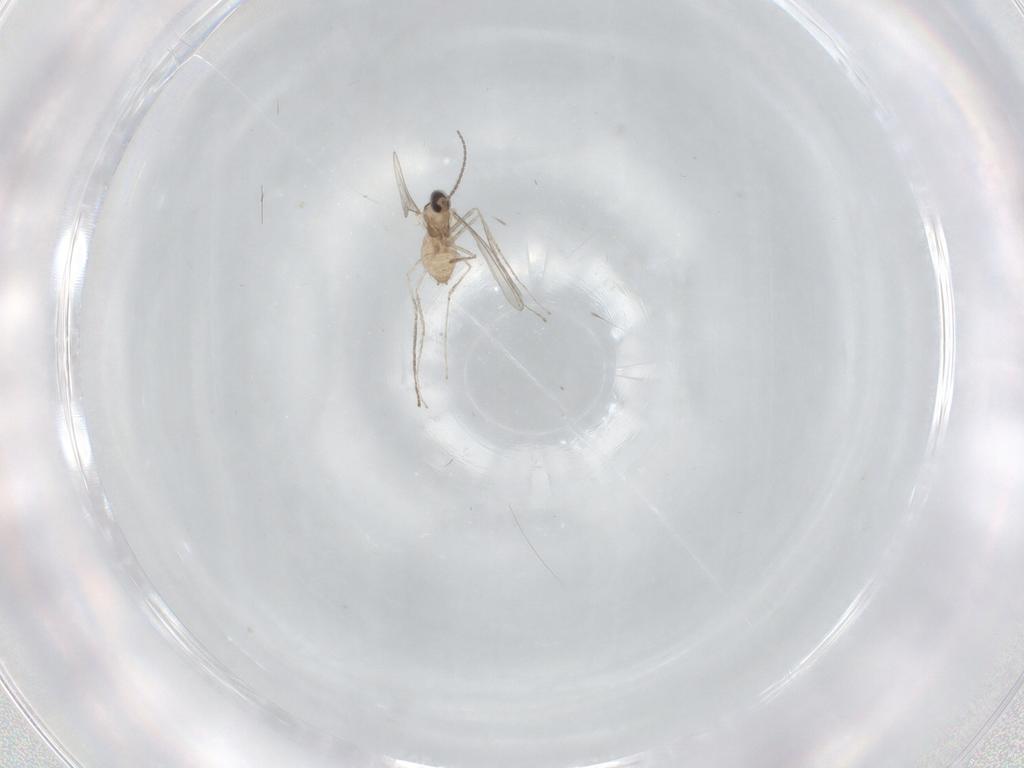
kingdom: Animalia
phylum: Arthropoda
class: Insecta
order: Diptera
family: Cecidomyiidae
